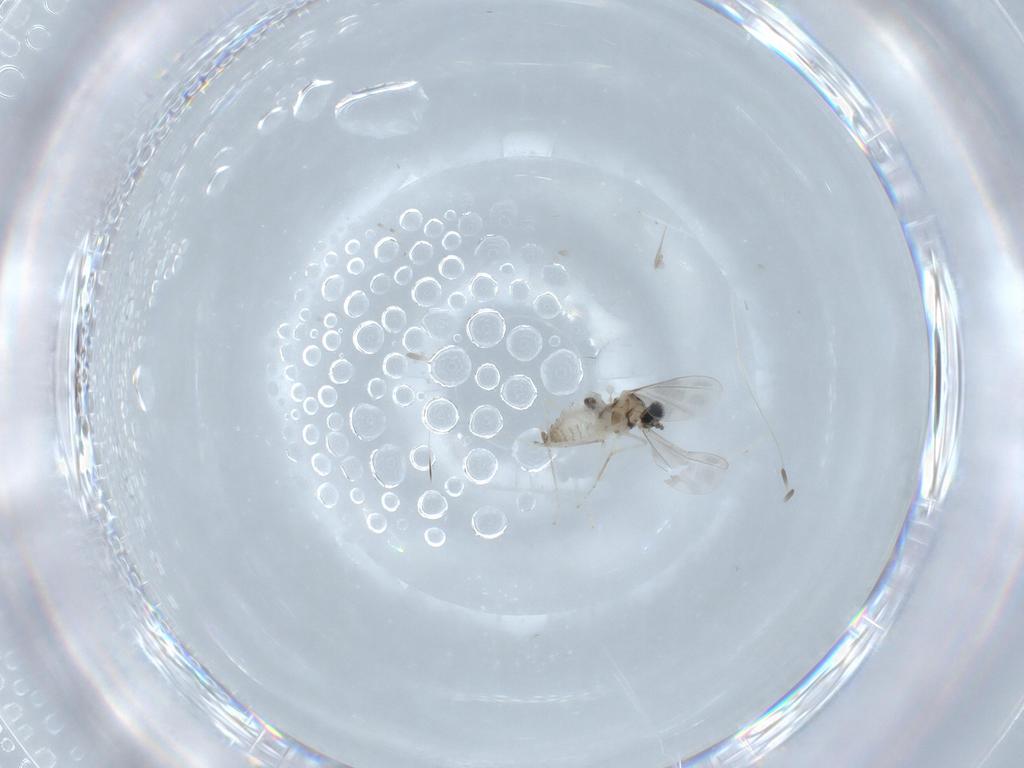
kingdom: Animalia
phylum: Arthropoda
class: Insecta
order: Diptera
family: Cecidomyiidae
